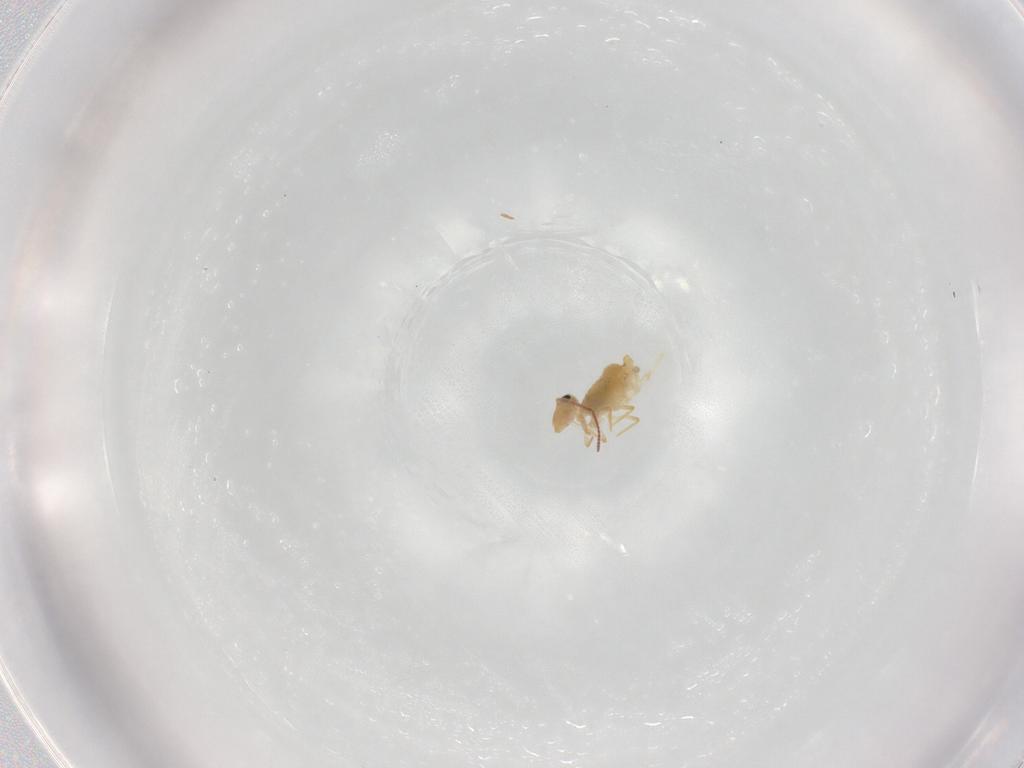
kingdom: Animalia
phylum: Arthropoda
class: Collembola
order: Symphypleona
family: Bourletiellidae
